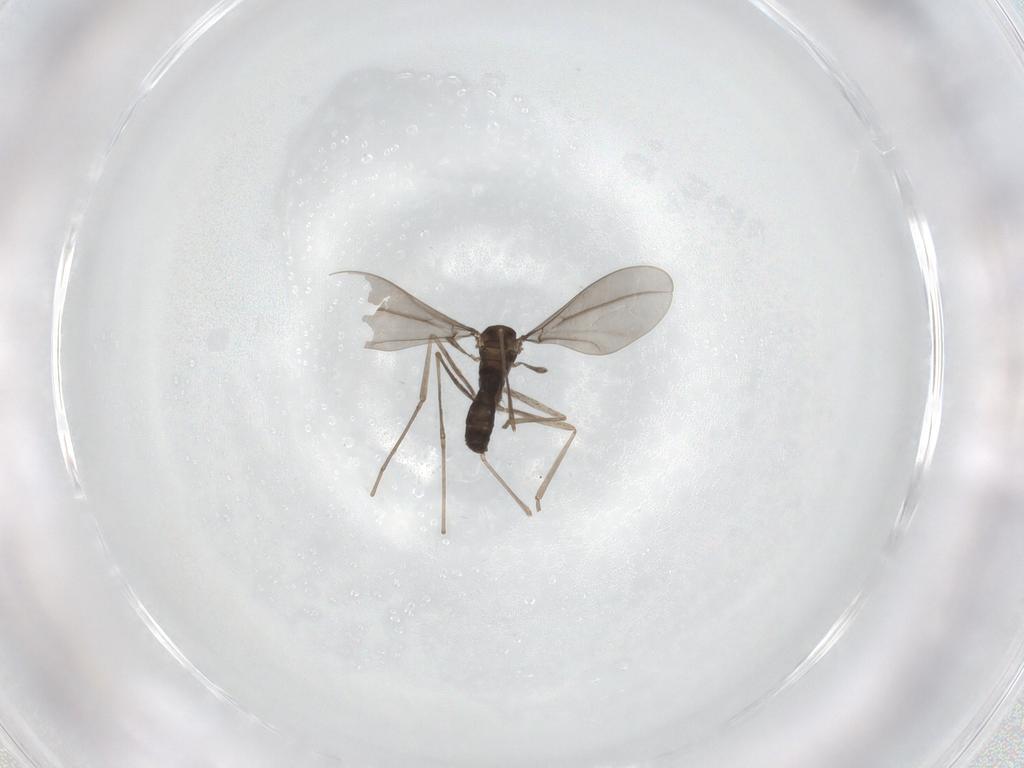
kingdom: Animalia
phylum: Arthropoda
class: Insecta
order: Diptera
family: Cecidomyiidae
